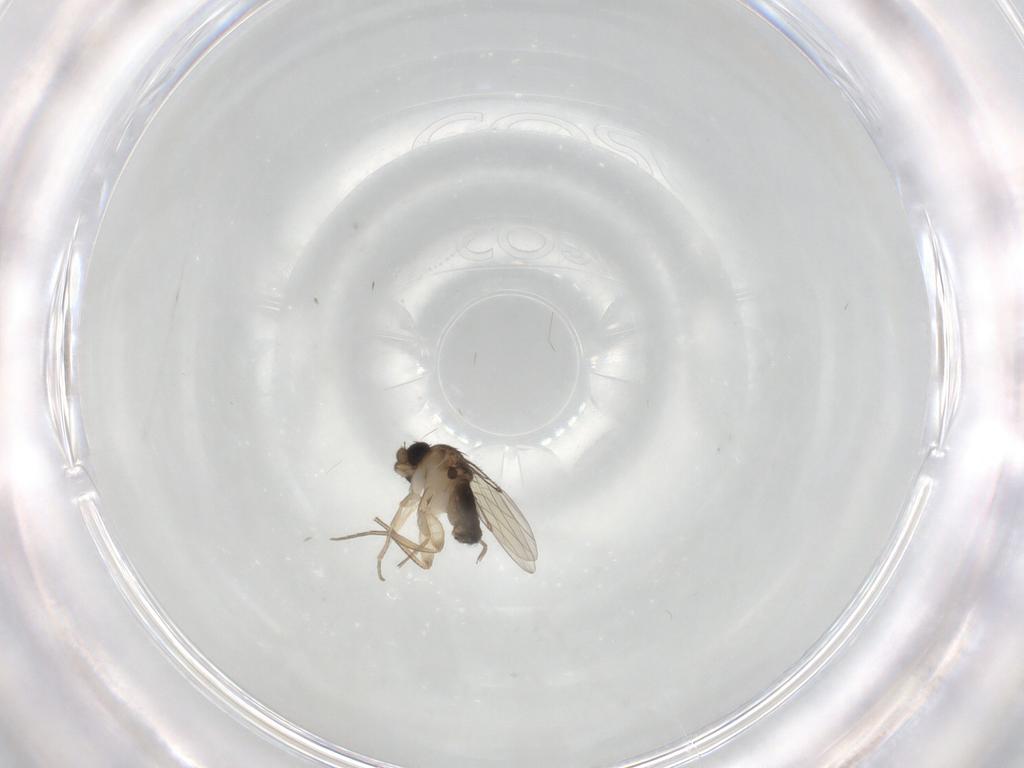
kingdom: Animalia
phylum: Arthropoda
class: Insecta
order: Diptera
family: Phoridae
